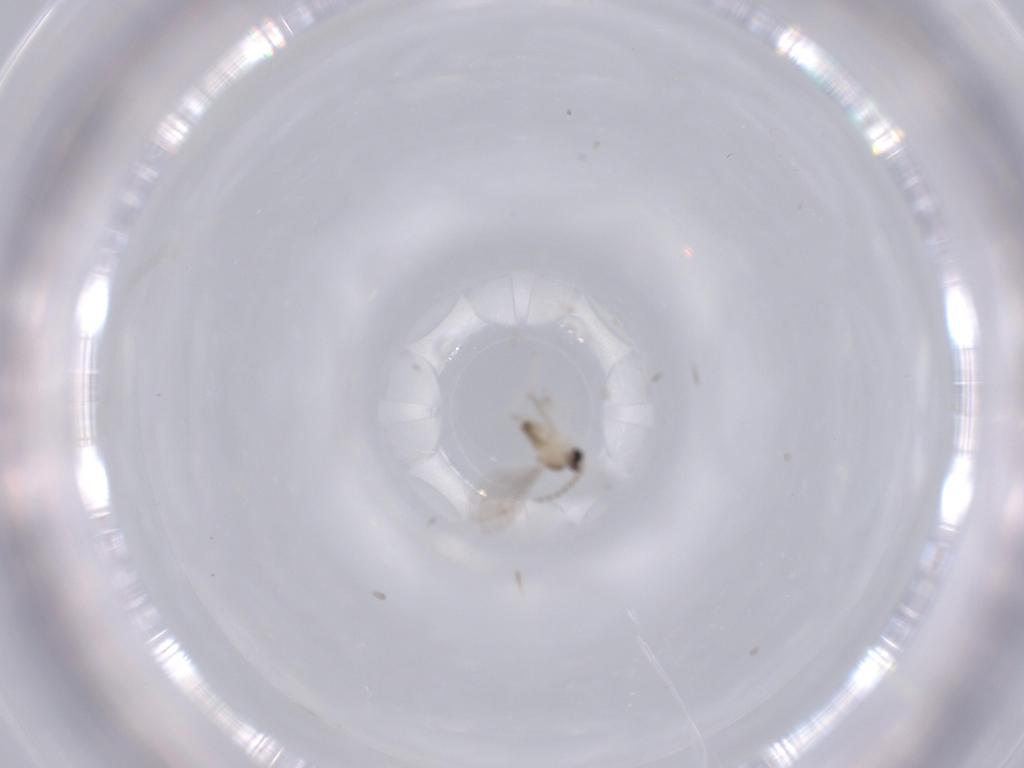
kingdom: Animalia
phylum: Arthropoda
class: Insecta
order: Diptera
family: Cecidomyiidae
